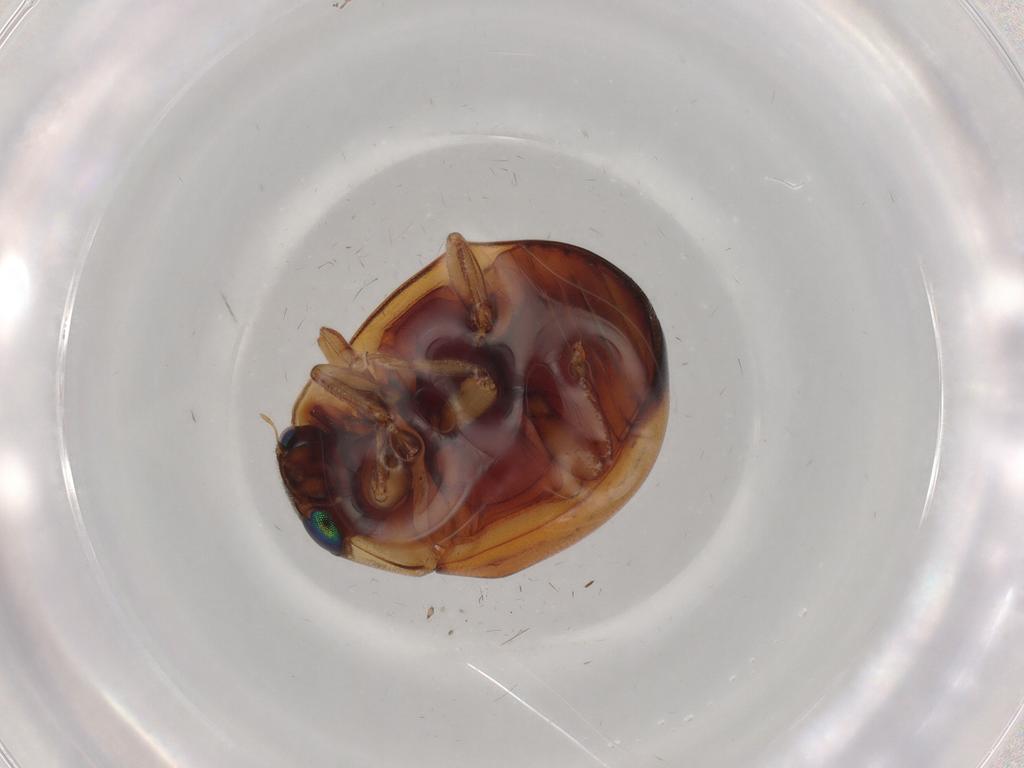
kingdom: Animalia
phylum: Arthropoda
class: Insecta
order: Coleoptera
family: Coccinellidae
